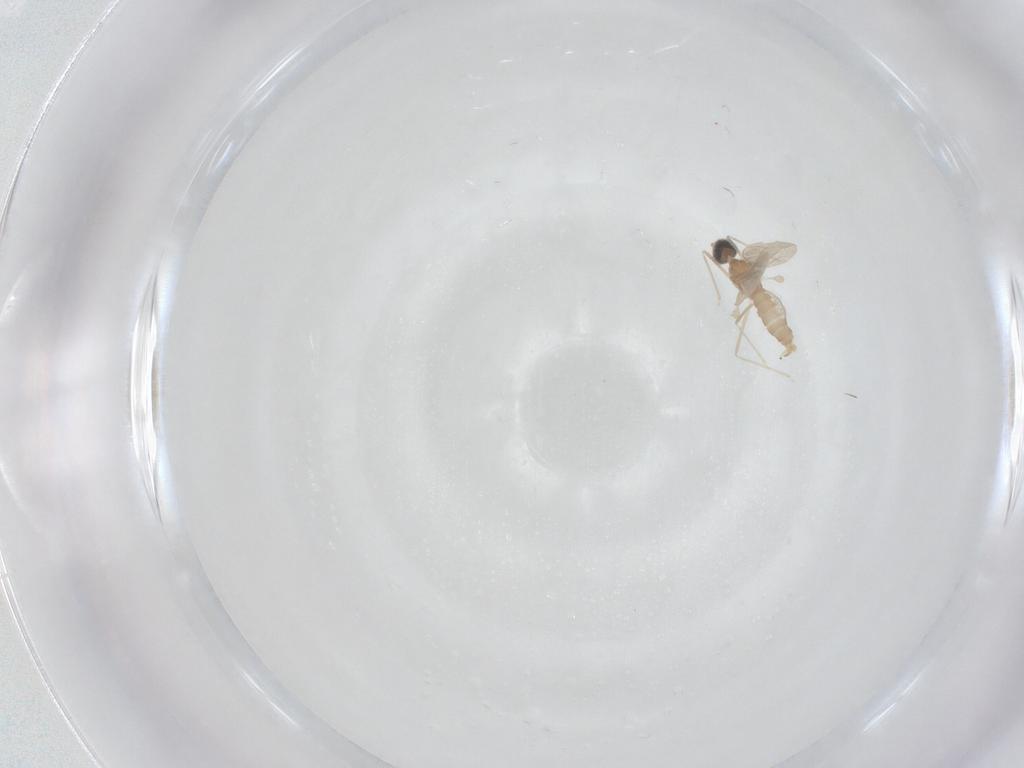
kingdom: Animalia
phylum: Arthropoda
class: Insecta
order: Diptera
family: Cecidomyiidae
